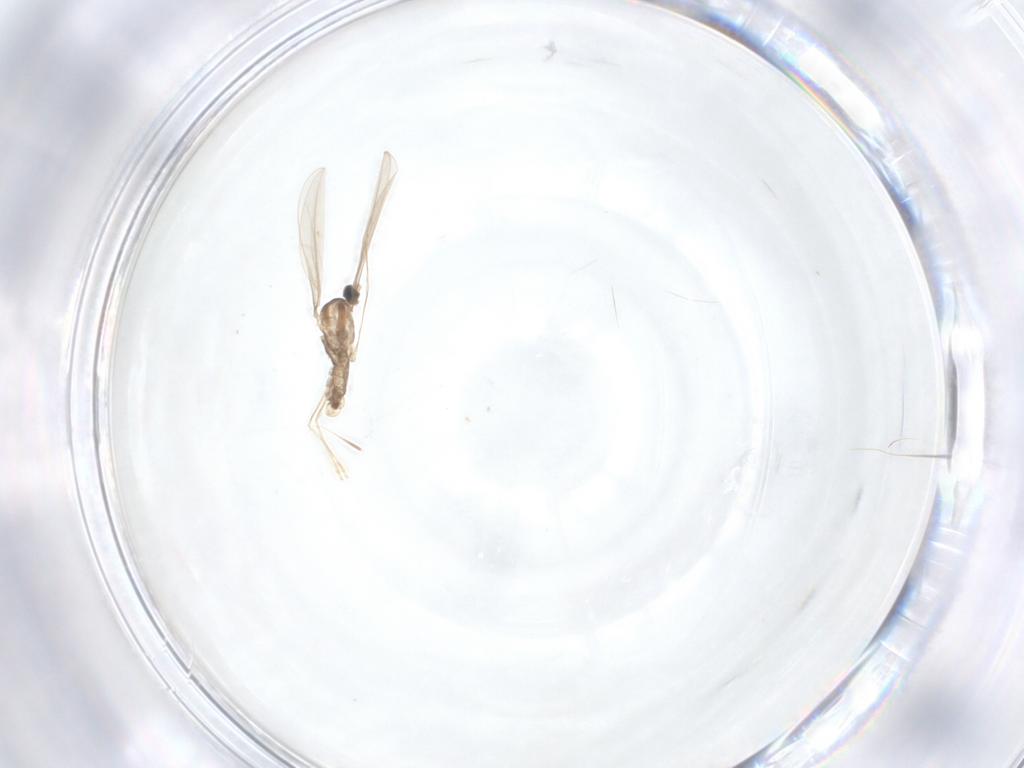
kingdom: Animalia
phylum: Arthropoda
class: Insecta
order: Diptera
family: Cecidomyiidae
